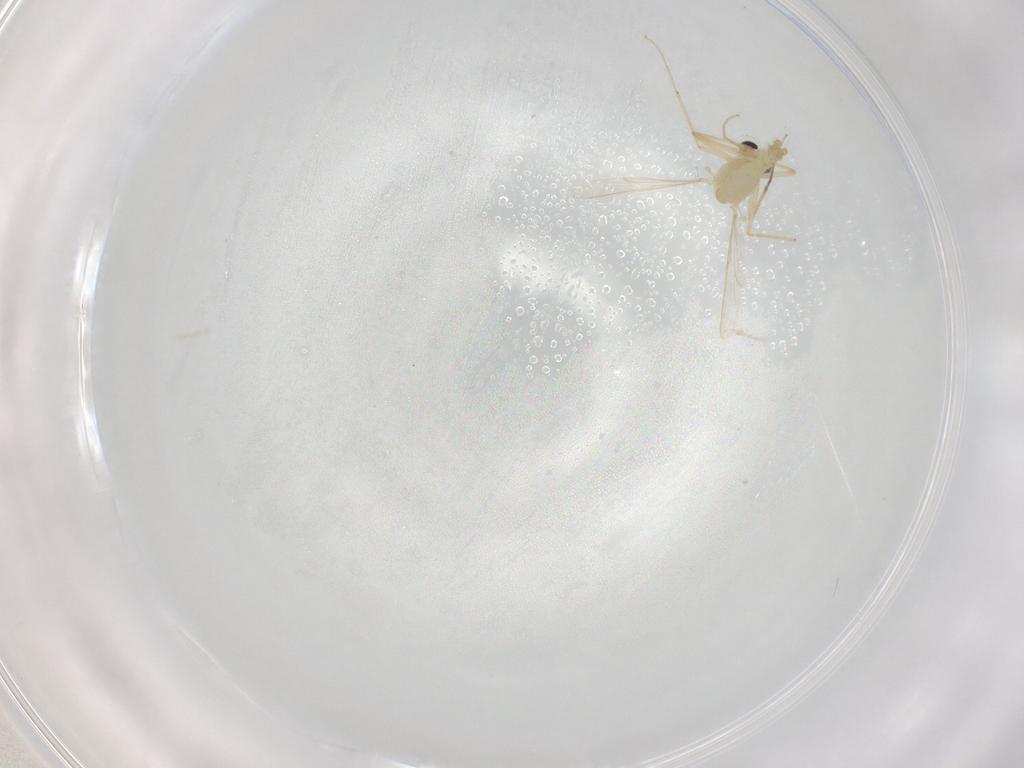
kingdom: Animalia
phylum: Arthropoda
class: Insecta
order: Diptera
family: Chironomidae
